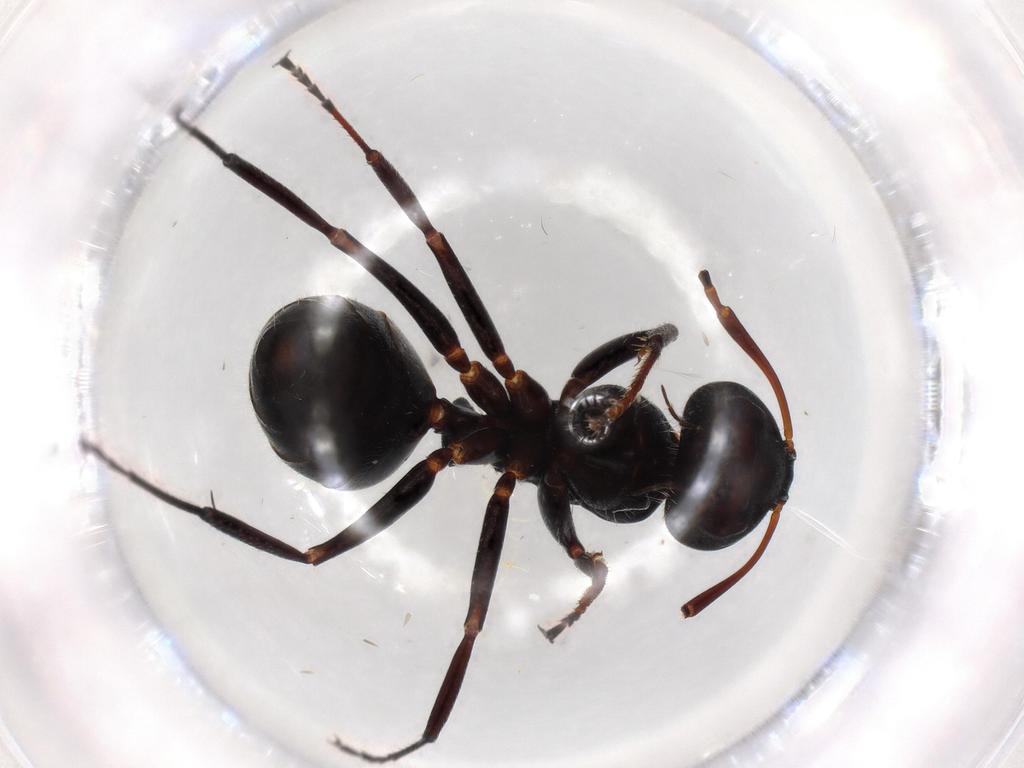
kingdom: Animalia
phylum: Arthropoda
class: Insecta
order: Hymenoptera
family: Formicidae
